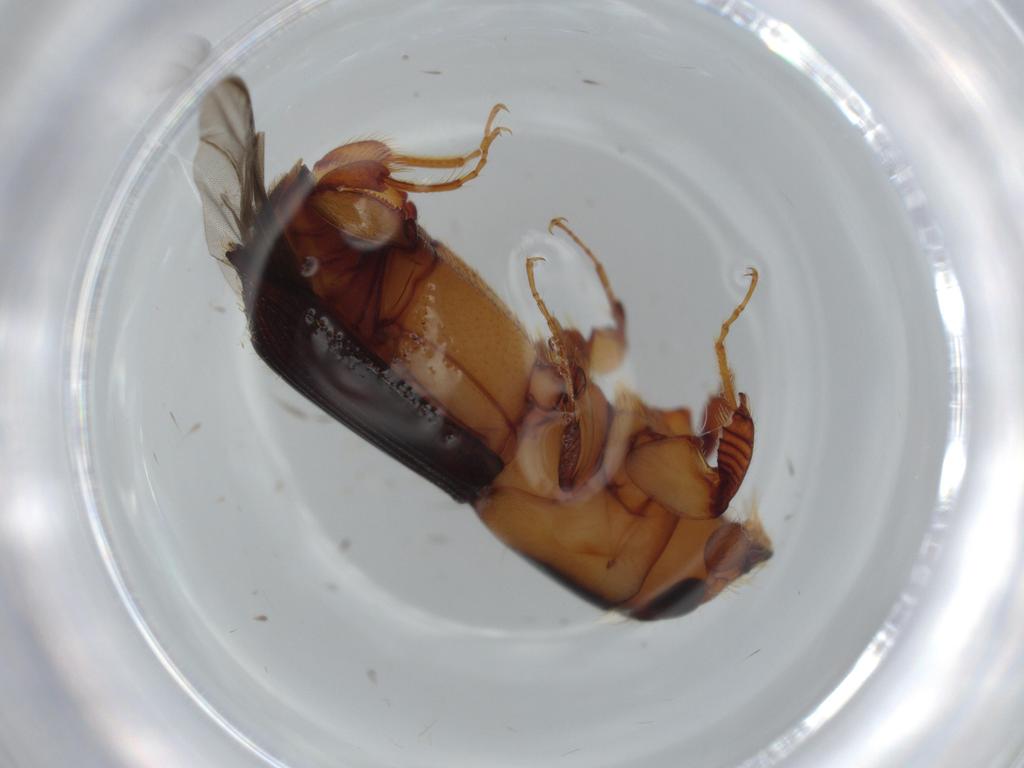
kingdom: Animalia
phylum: Arthropoda
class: Insecta
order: Coleoptera
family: Curculionidae
